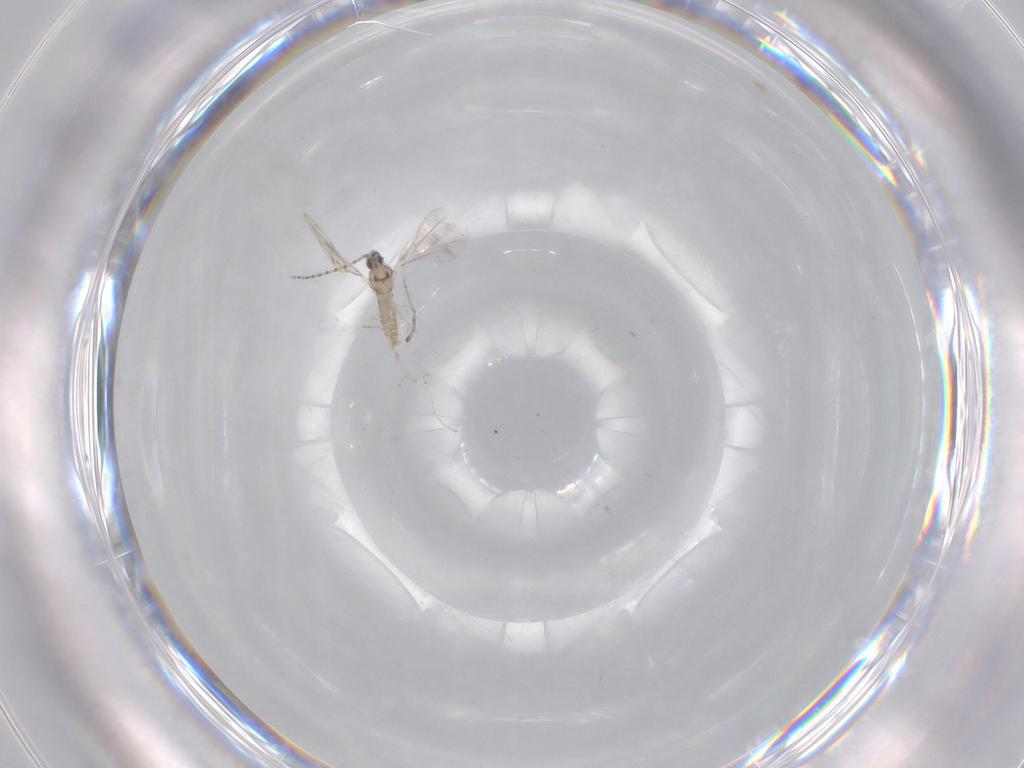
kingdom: Animalia
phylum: Arthropoda
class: Insecta
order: Diptera
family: Cecidomyiidae
